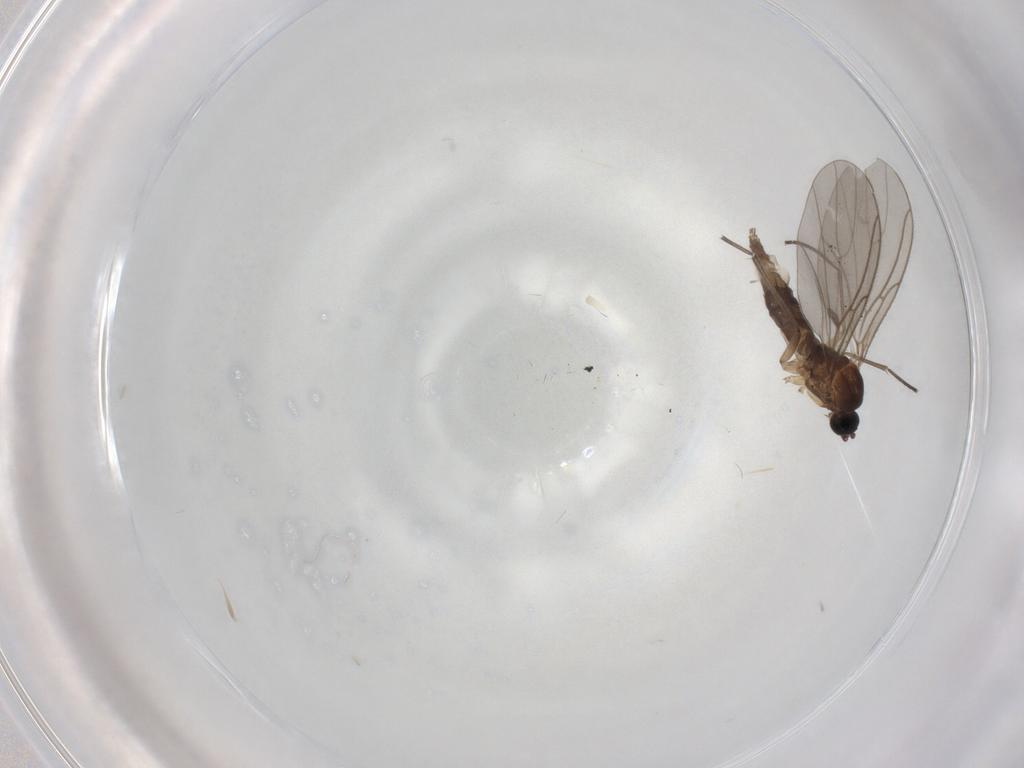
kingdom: Animalia
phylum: Arthropoda
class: Insecta
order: Diptera
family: Sciaridae
